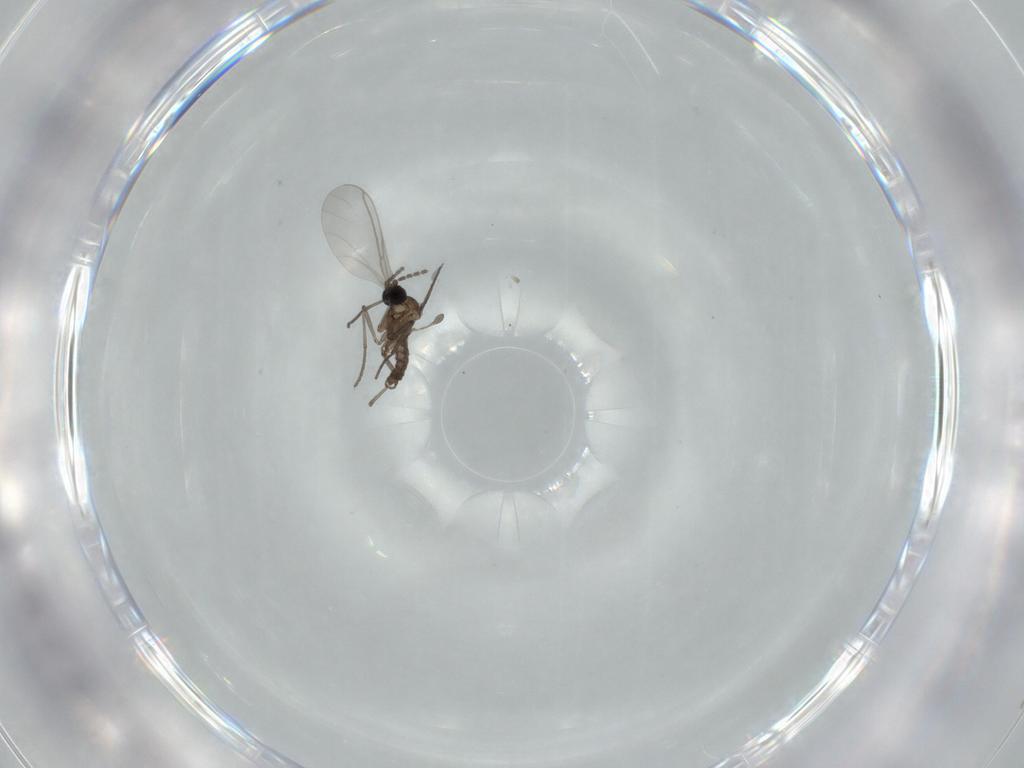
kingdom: Animalia
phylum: Arthropoda
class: Insecta
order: Diptera
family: Sciaridae
